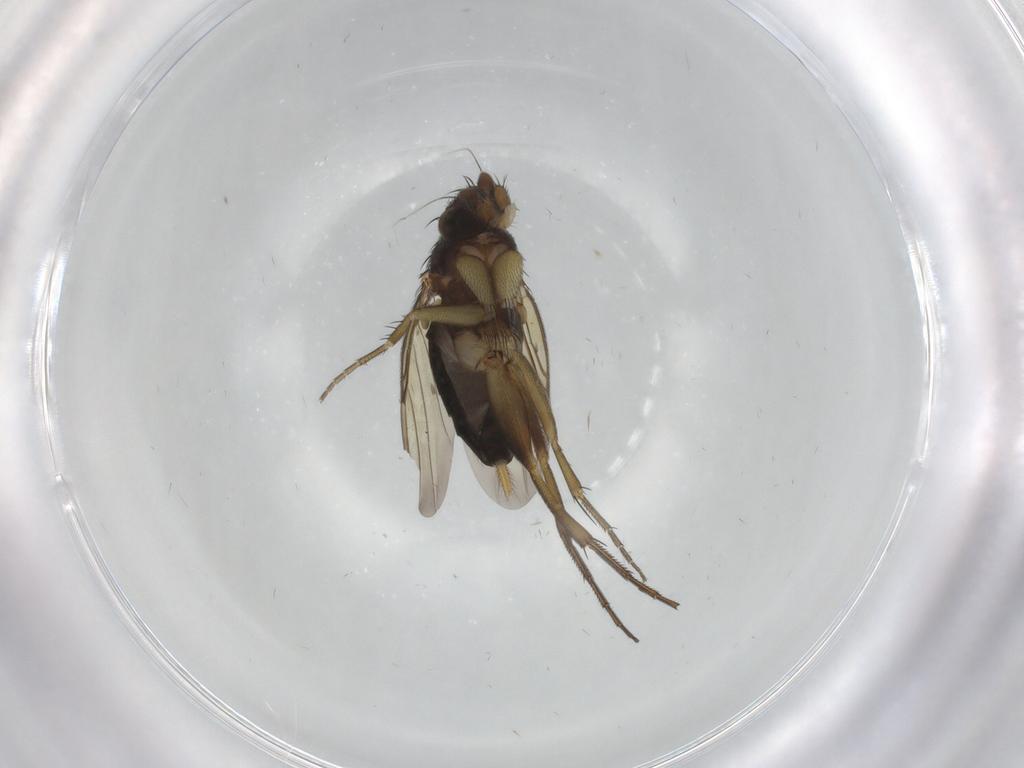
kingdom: Animalia
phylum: Arthropoda
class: Insecta
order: Diptera
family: Phoridae
